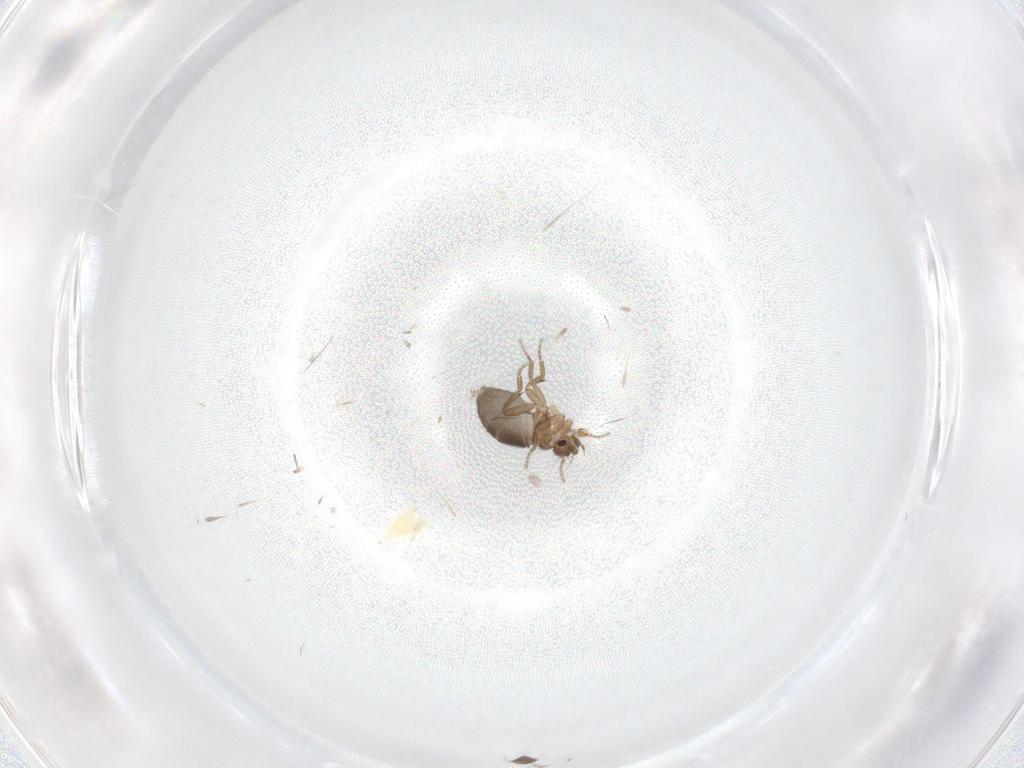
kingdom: Animalia
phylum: Arthropoda
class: Insecta
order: Diptera
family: Phoridae
